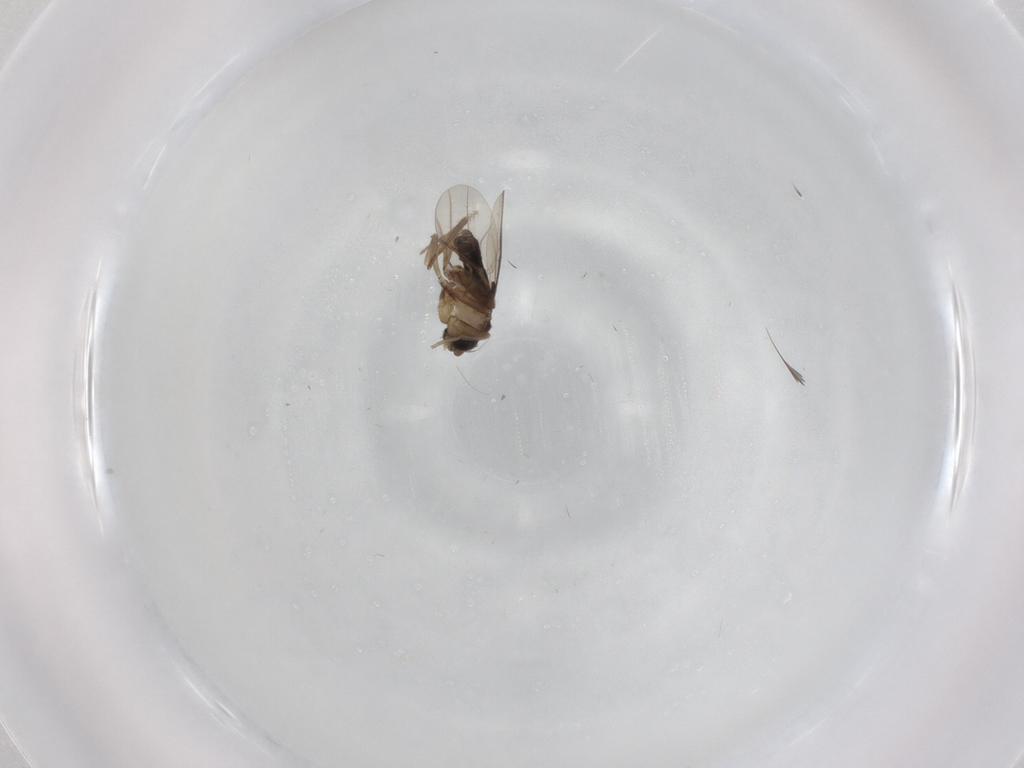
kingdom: Animalia
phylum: Arthropoda
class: Insecta
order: Diptera
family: Phoridae
